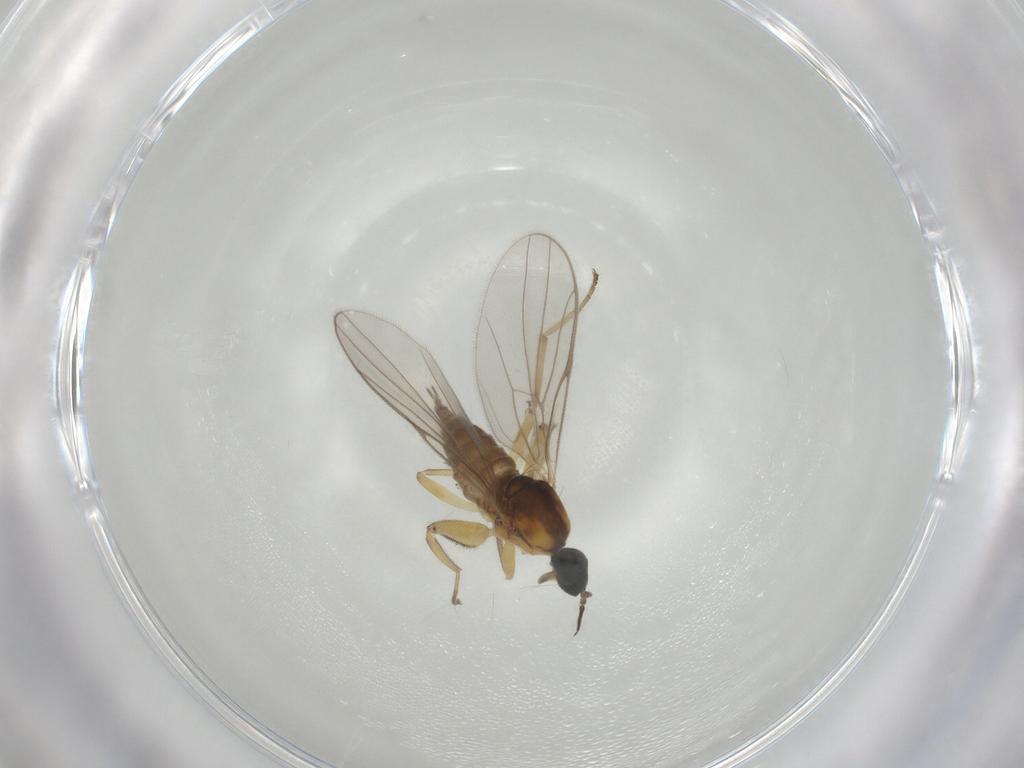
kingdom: Animalia
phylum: Arthropoda
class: Insecta
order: Diptera
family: Hybotidae
